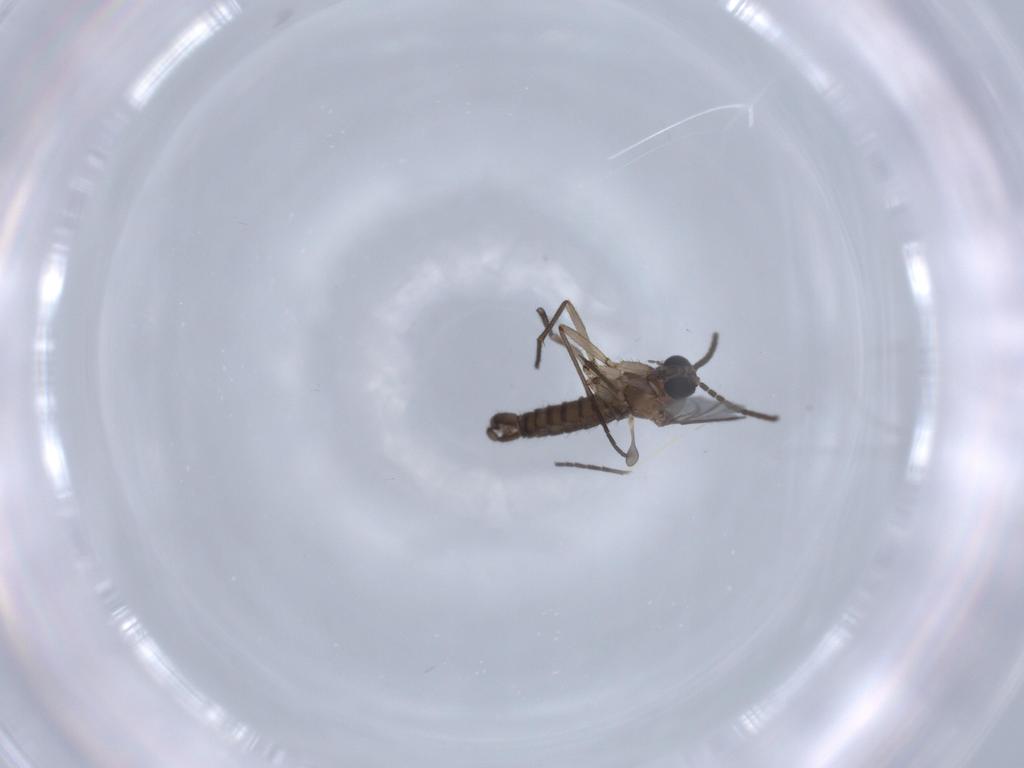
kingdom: Animalia
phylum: Arthropoda
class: Insecta
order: Diptera
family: Sciaridae
